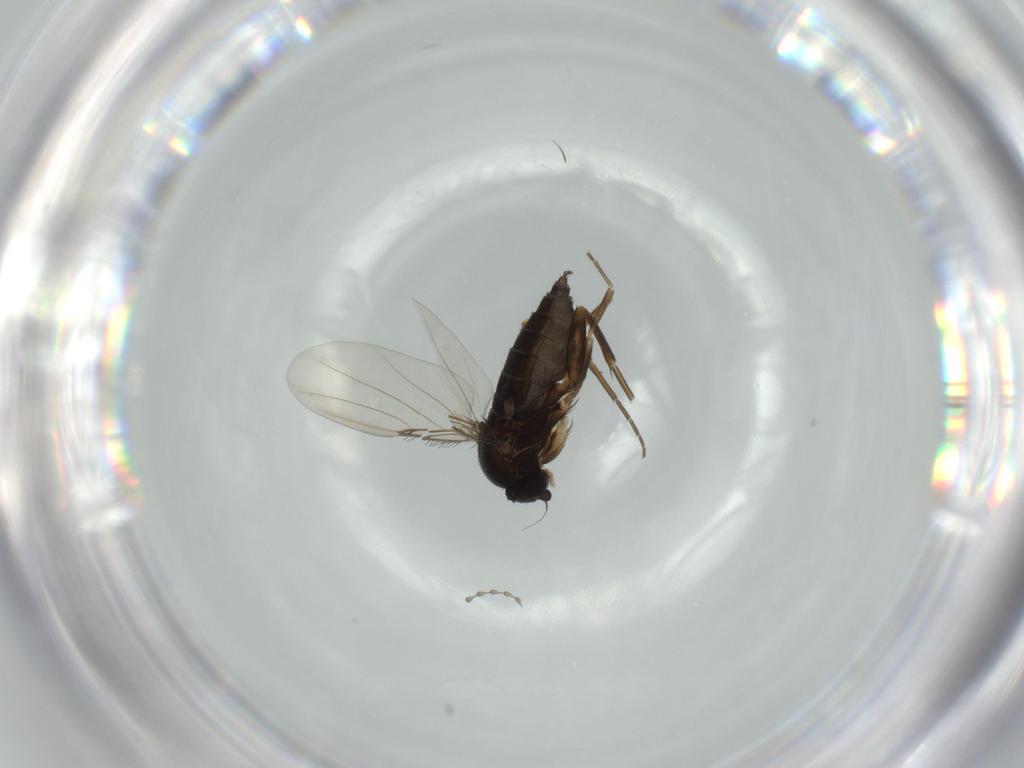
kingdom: Animalia
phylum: Arthropoda
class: Insecta
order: Diptera
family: Phoridae
